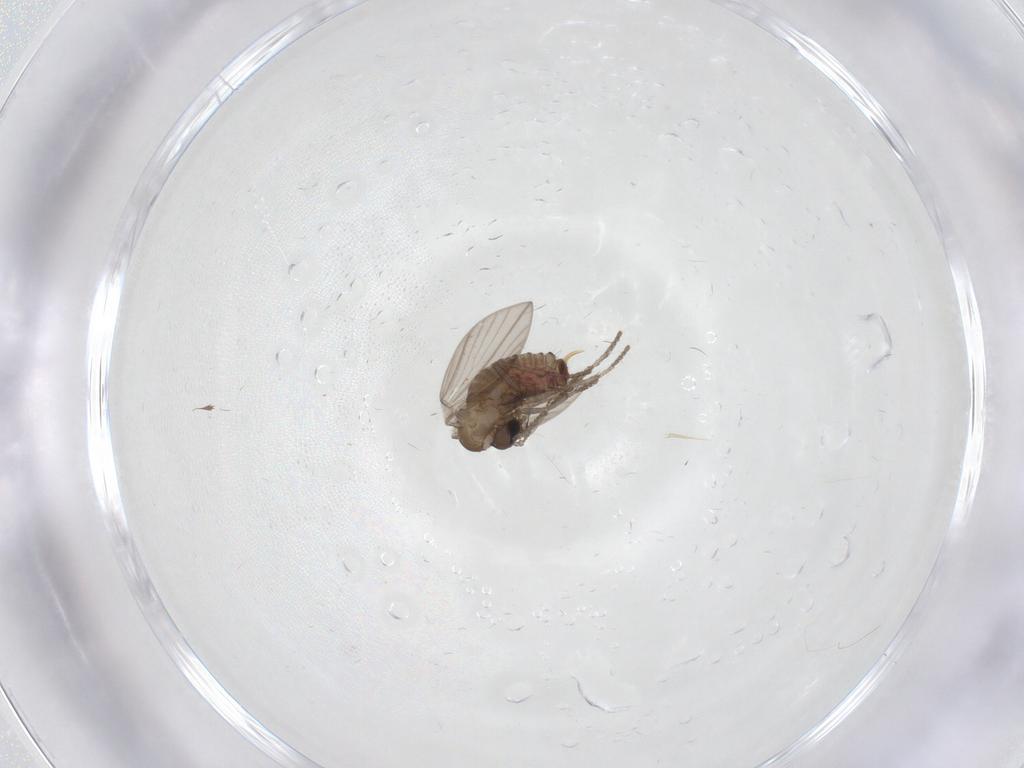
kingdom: Animalia
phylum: Arthropoda
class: Insecta
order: Diptera
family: Psychodidae
